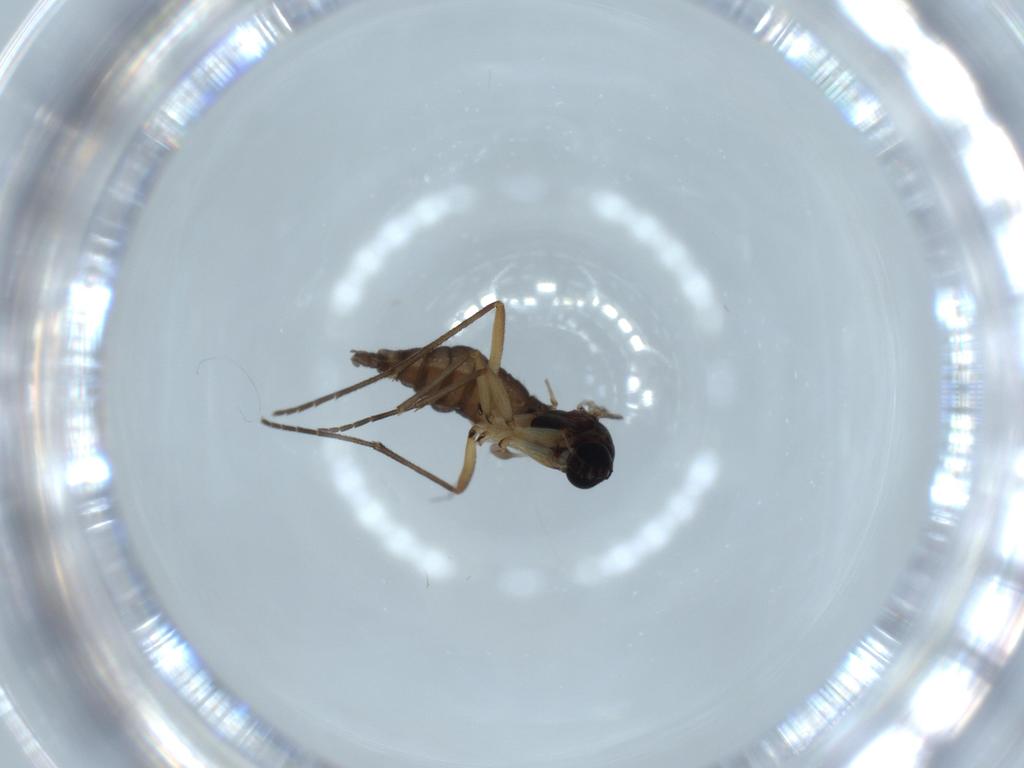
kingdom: Animalia
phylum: Arthropoda
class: Insecta
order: Diptera
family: Sciaridae
